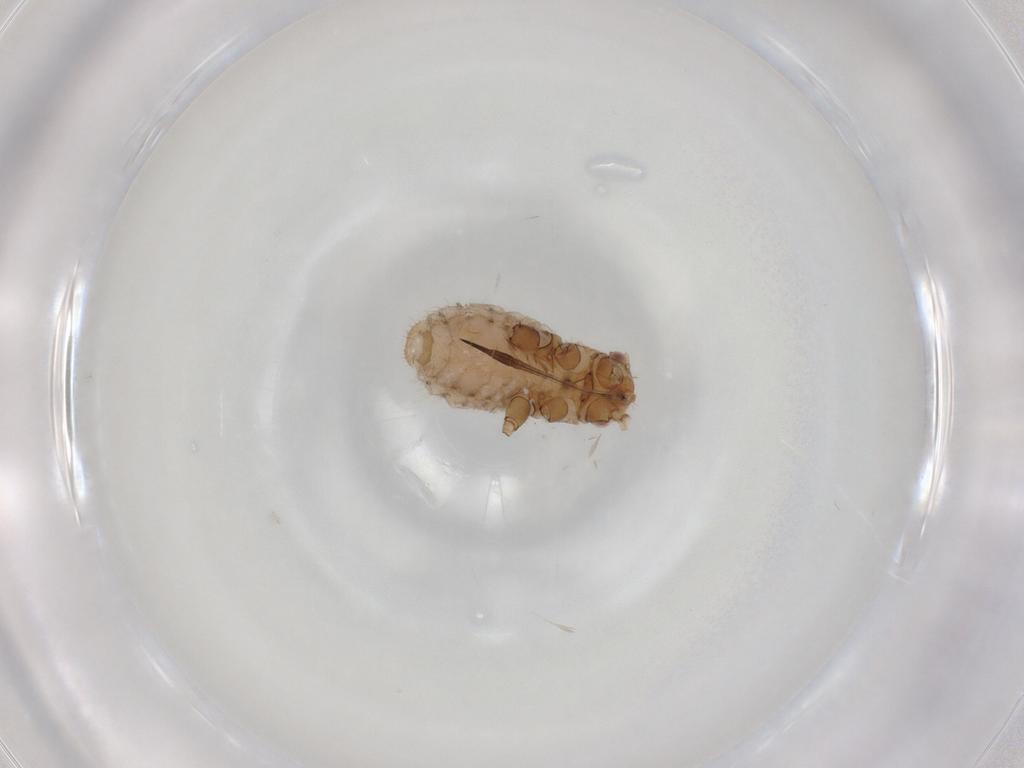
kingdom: Animalia
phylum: Arthropoda
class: Insecta
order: Hemiptera
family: Aphididae
